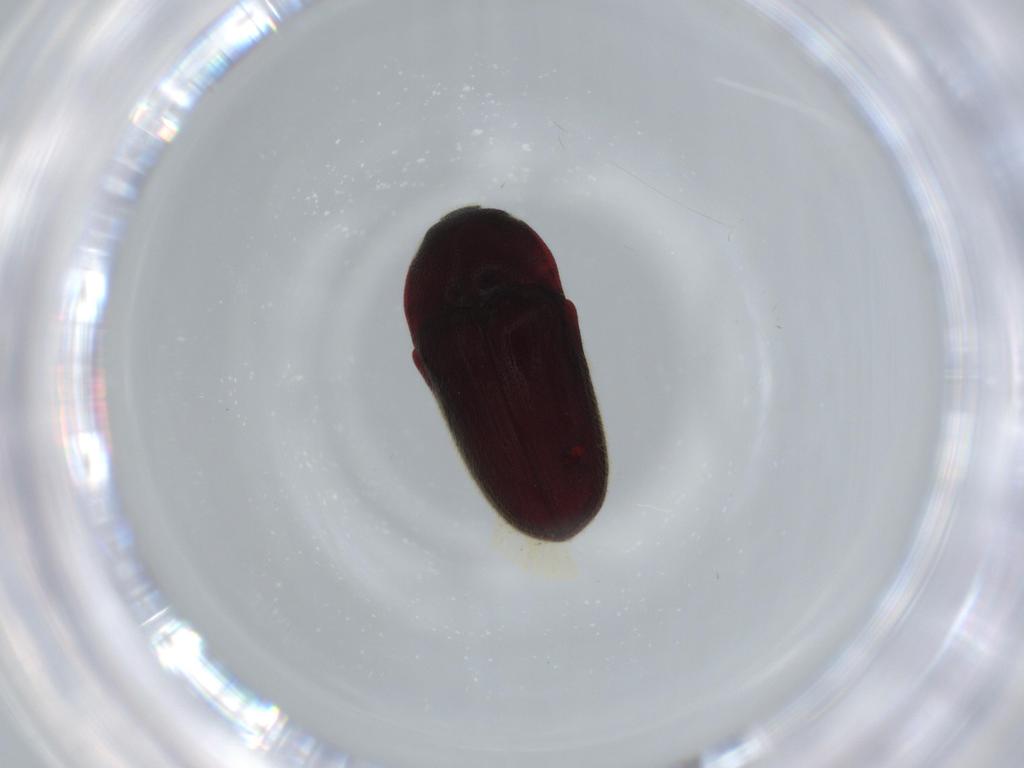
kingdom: Animalia
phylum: Arthropoda
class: Insecta
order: Coleoptera
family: Throscidae
